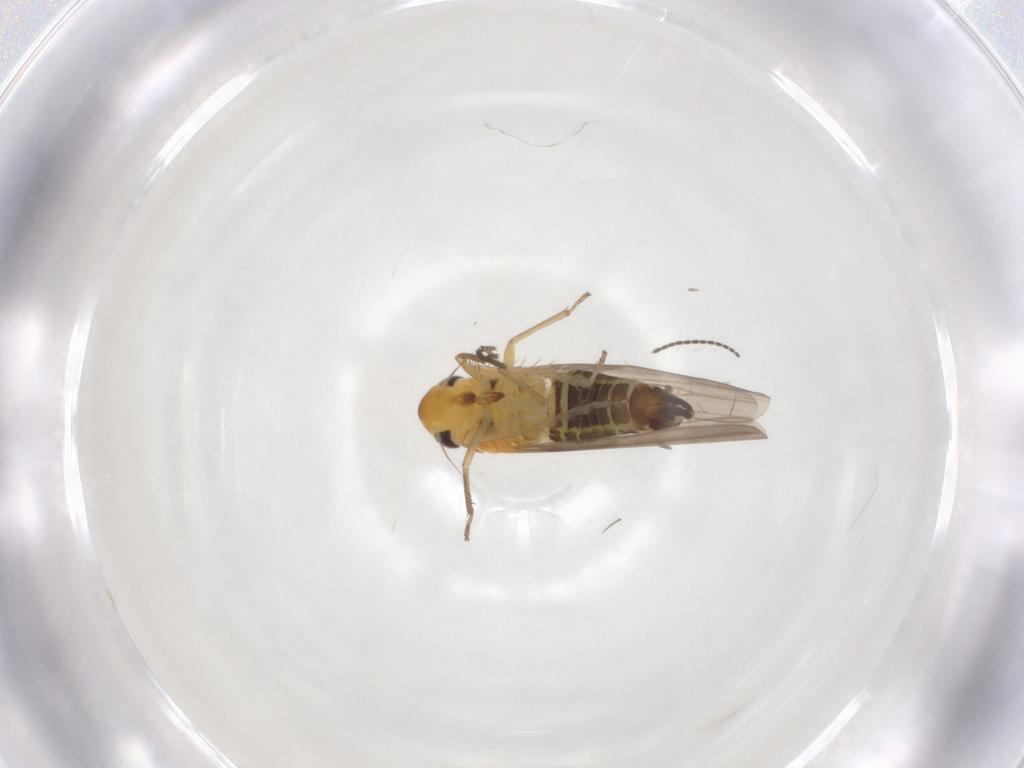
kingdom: Animalia
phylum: Arthropoda
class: Insecta
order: Hemiptera
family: Cicadellidae
